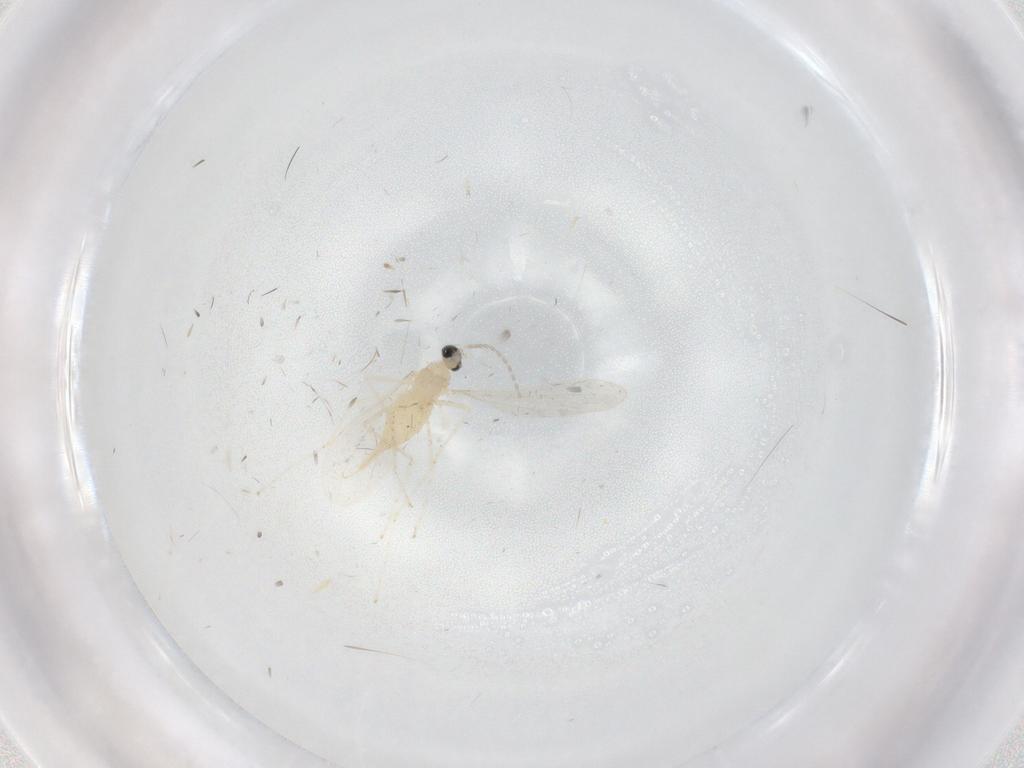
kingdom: Animalia
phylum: Arthropoda
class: Insecta
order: Diptera
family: Cecidomyiidae
